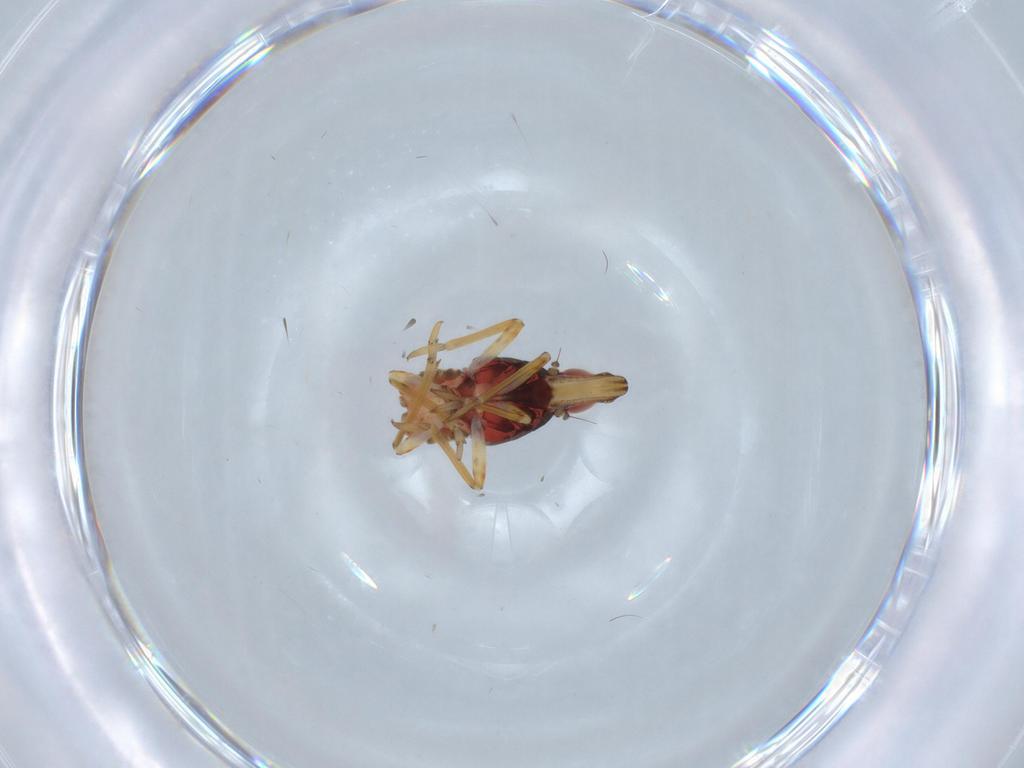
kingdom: Animalia
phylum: Arthropoda
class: Insecta
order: Hemiptera
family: Fulgoroidea_incertae_sedis
